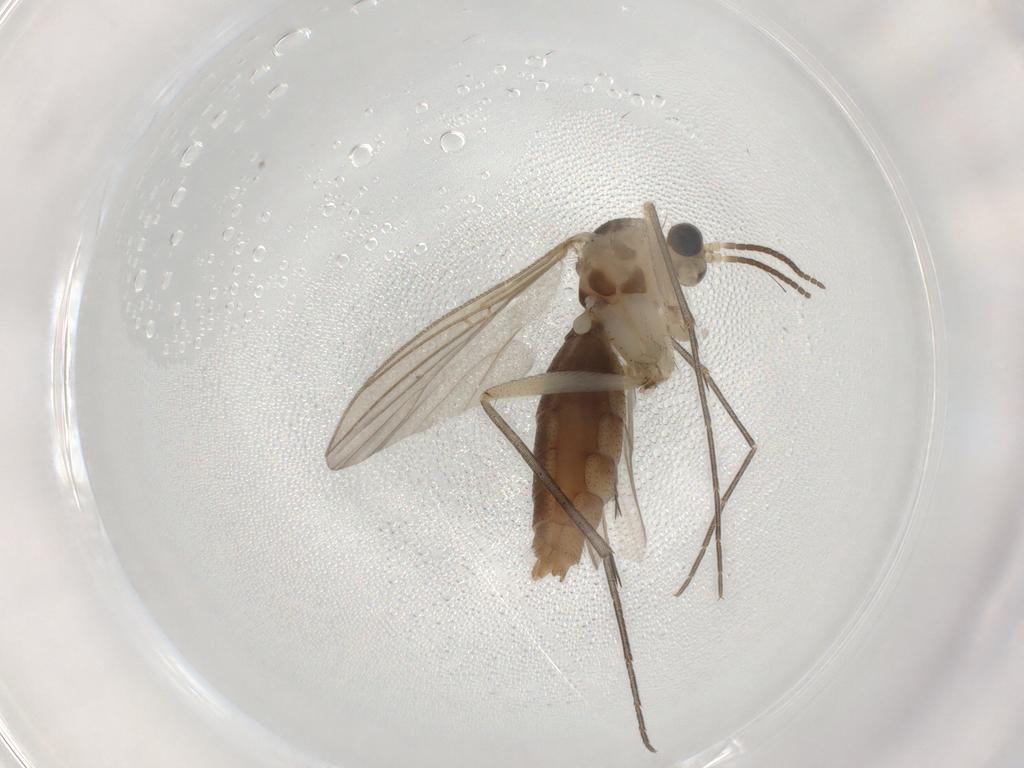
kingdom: Animalia
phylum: Arthropoda
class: Insecta
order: Diptera
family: Mycetophilidae
